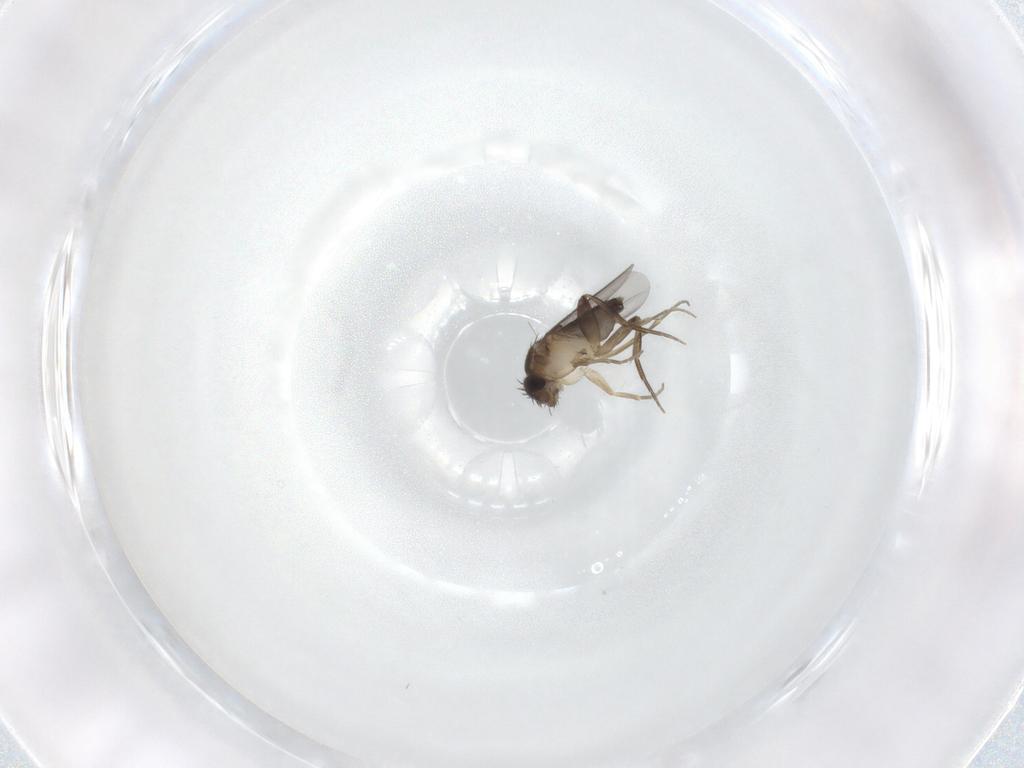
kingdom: Animalia
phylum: Arthropoda
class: Insecta
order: Diptera
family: Phoridae
